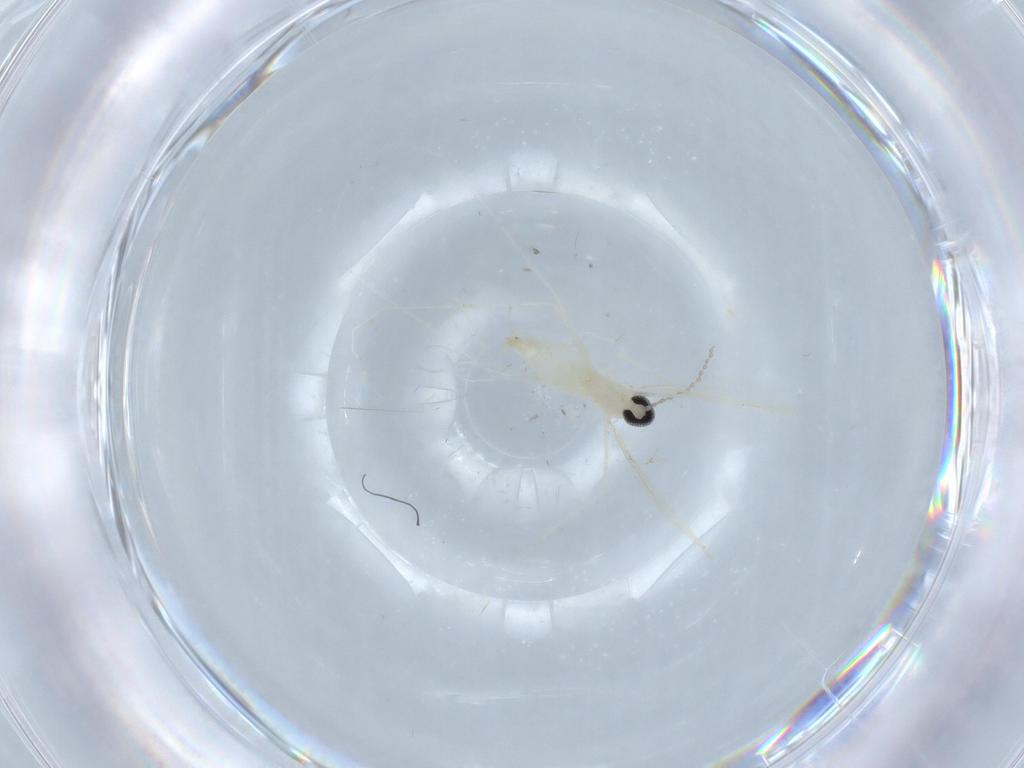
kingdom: Animalia
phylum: Arthropoda
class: Insecta
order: Diptera
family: Cecidomyiidae
